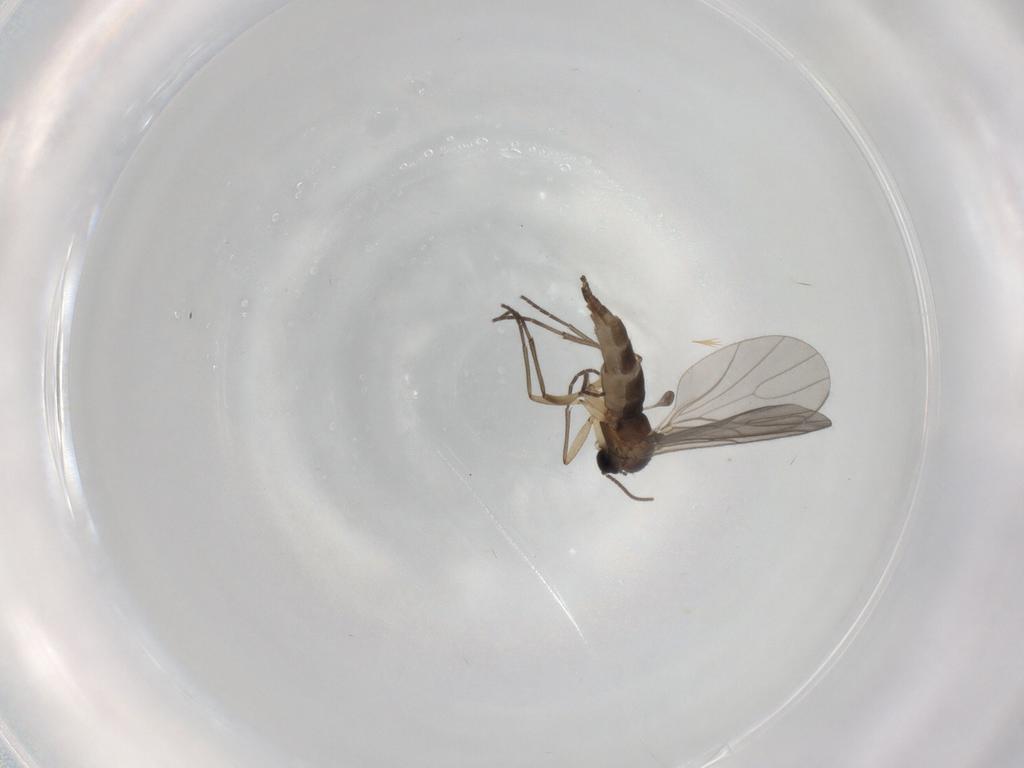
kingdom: Animalia
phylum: Arthropoda
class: Insecta
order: Diptera
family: Sciaridae
